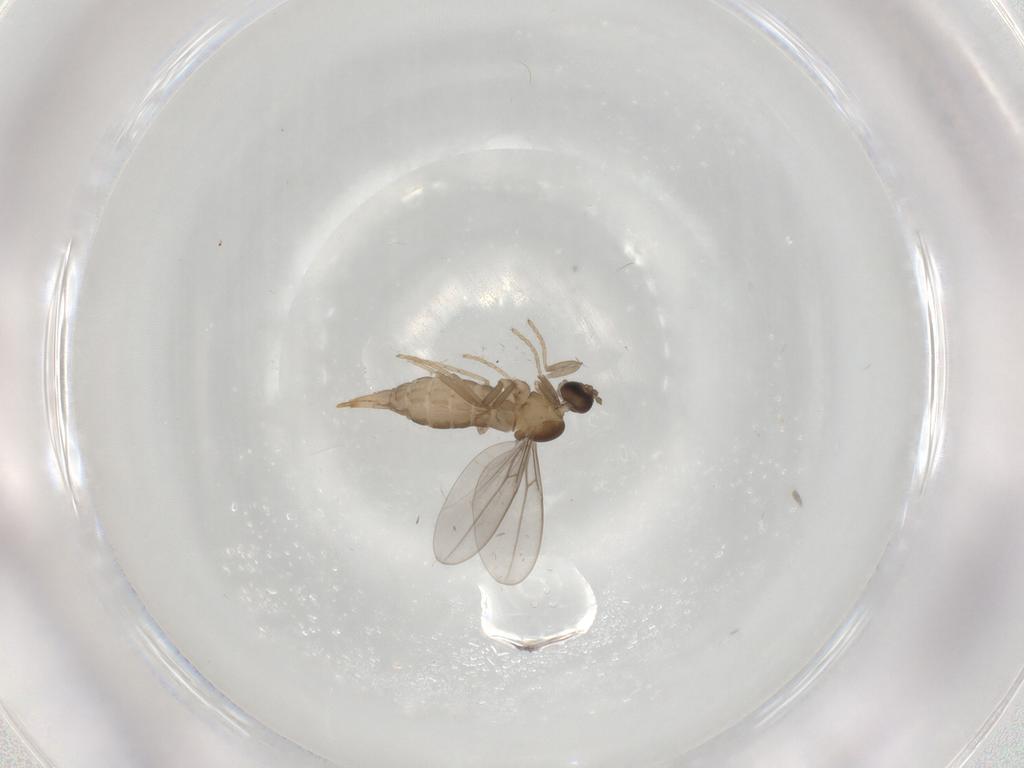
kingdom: Animalia
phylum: Arthropoda
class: Insecta
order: Diptera
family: Cecidomyiidae
